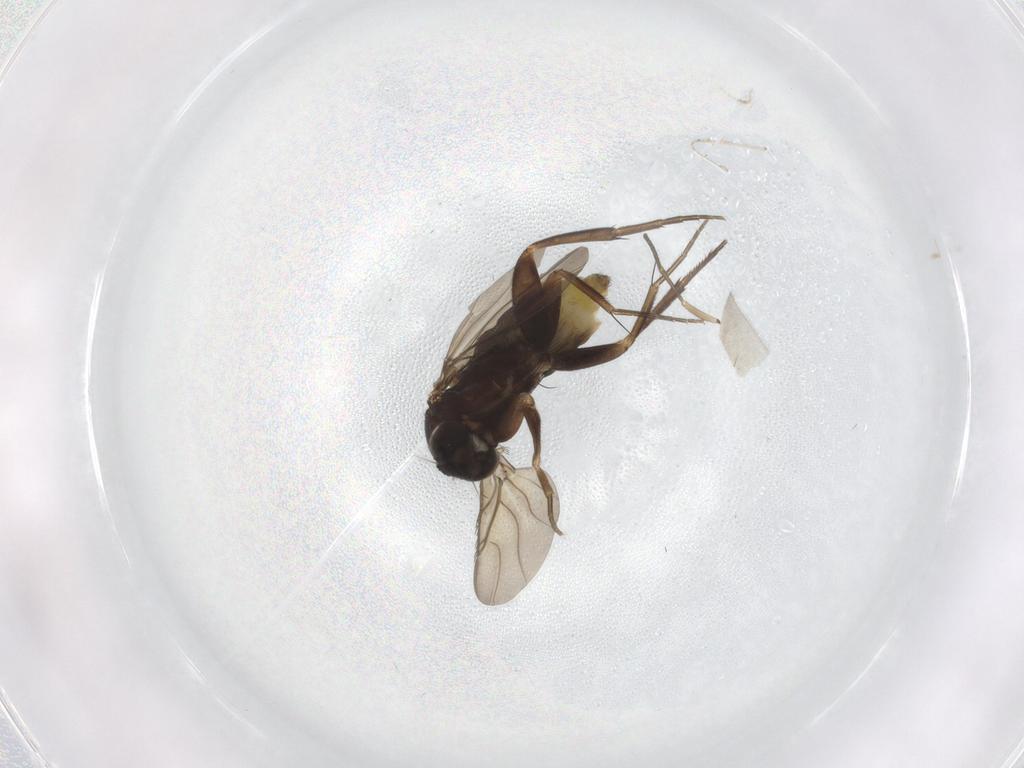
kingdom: Animalia
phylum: Arthropoda
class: Insecta
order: Diptera
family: Phoridae
